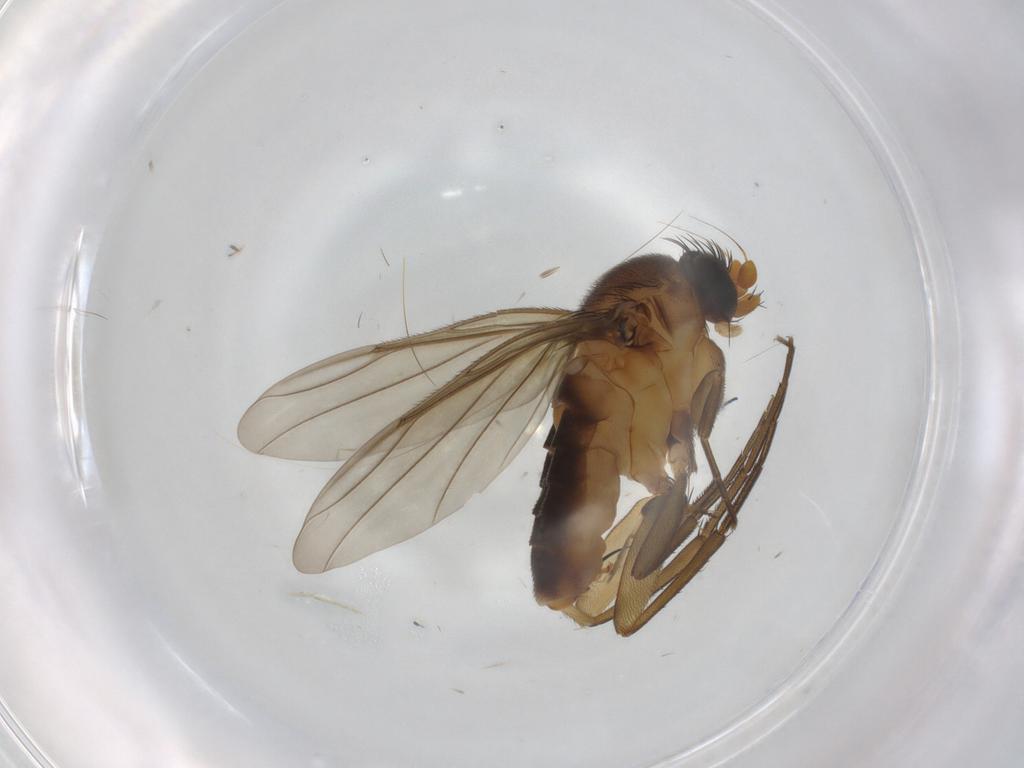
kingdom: Animalia
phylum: Arthropoda
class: Insecta
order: Diptera
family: Phoridae
